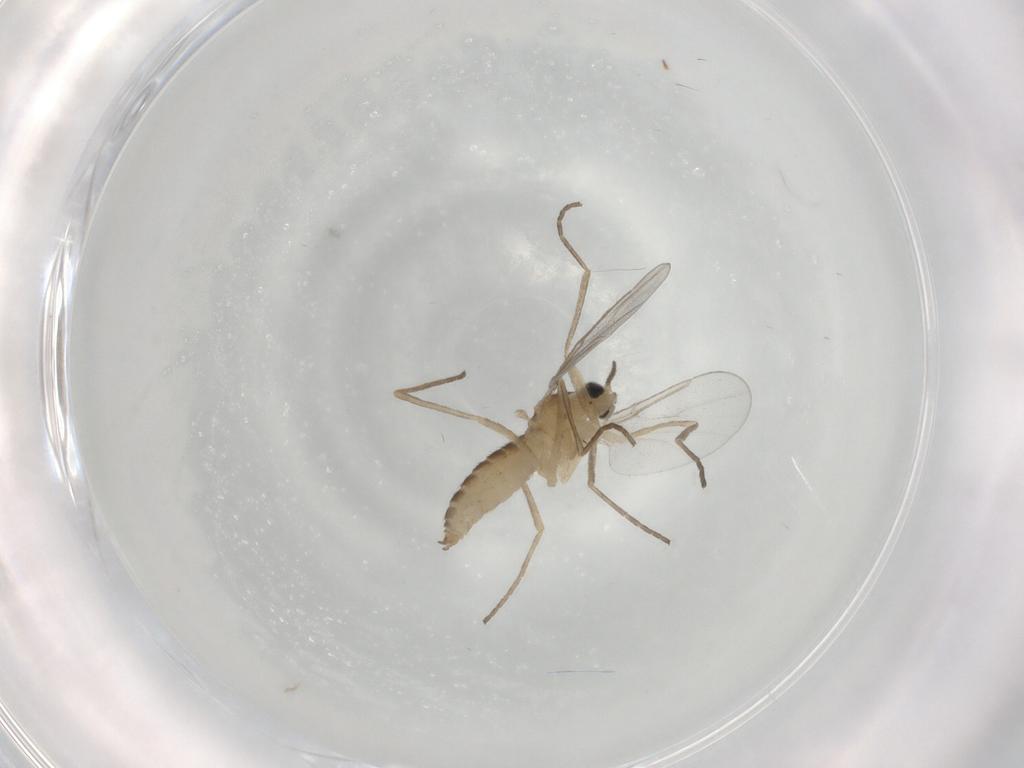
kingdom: Animalia
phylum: Arthropoda
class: Insecta
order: Diptera
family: Cecidomyiidae
